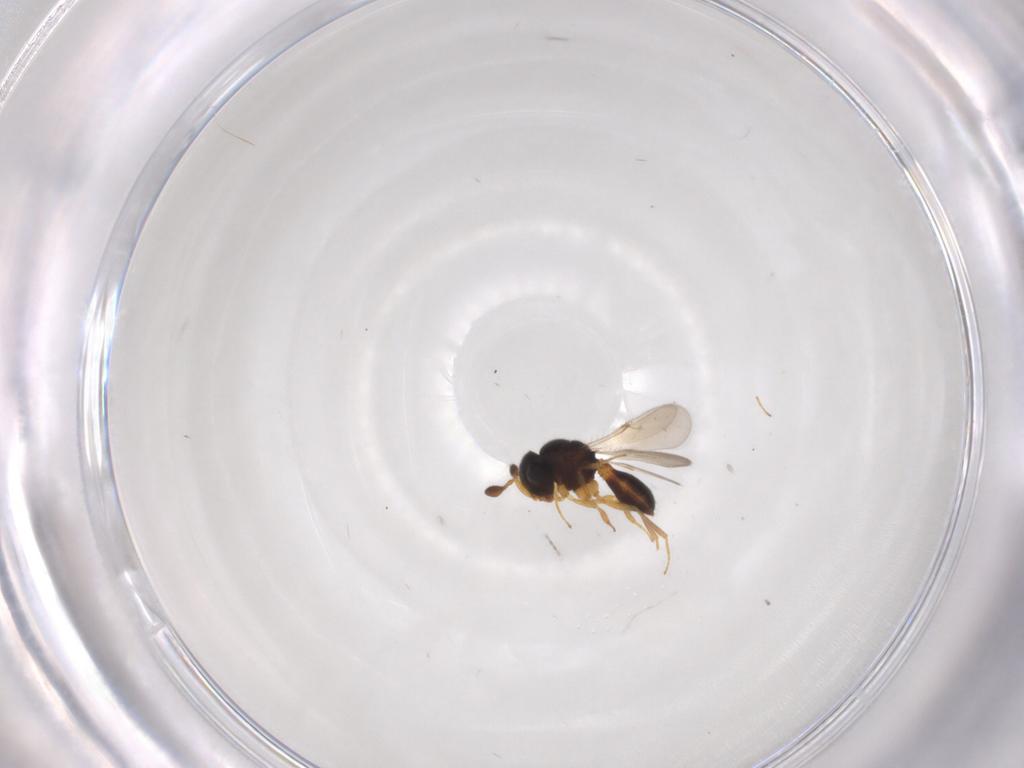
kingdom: Animalia
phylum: Arthropoda
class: Insecta
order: Hymenoptera
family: Scelionidae
